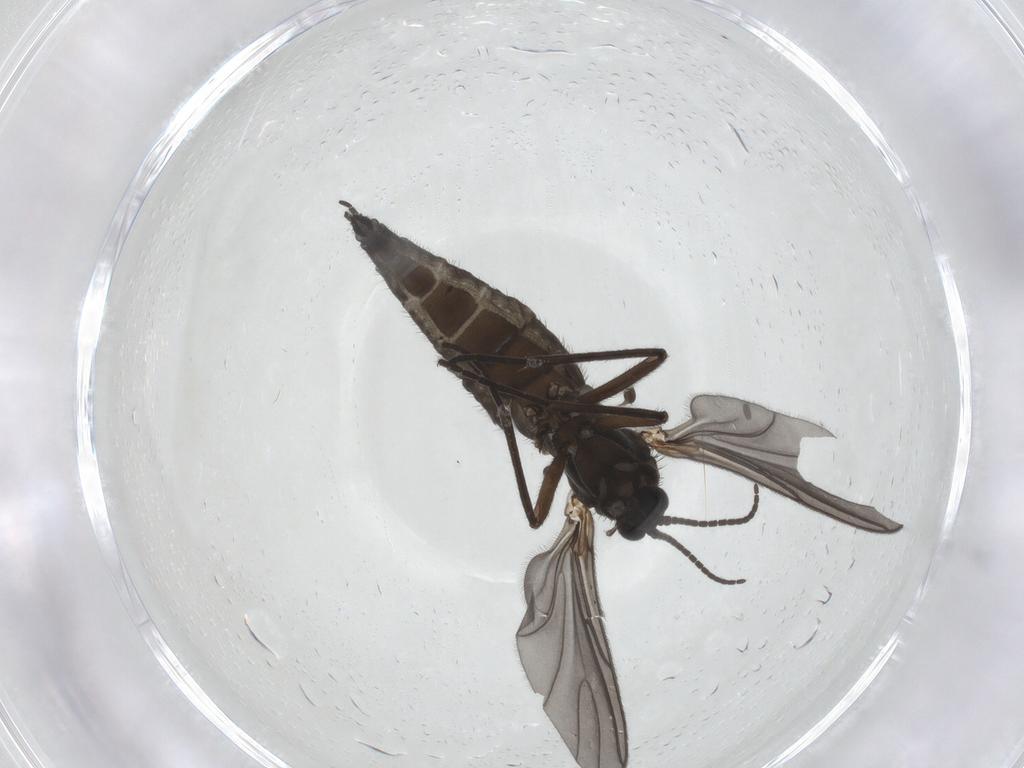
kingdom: Animalia
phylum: Arthropoda
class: Insecta
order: Diptera
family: Sciaridae
